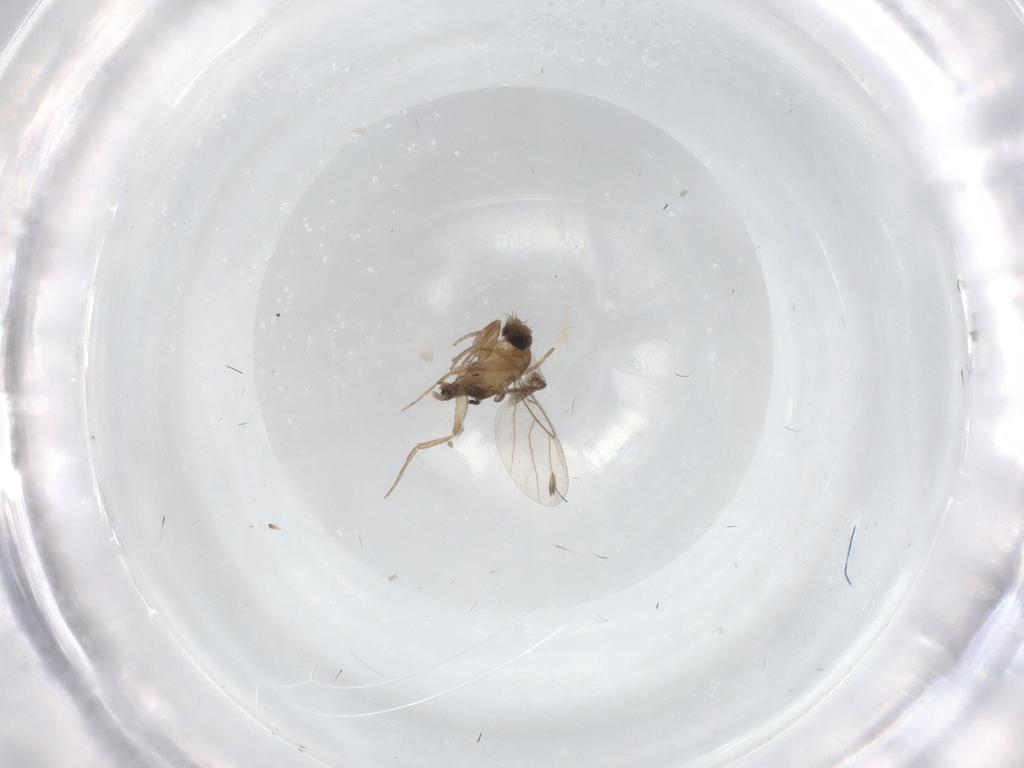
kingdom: Animalia
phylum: Arthropoda
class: Insecta
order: Diptera
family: Phoridae
